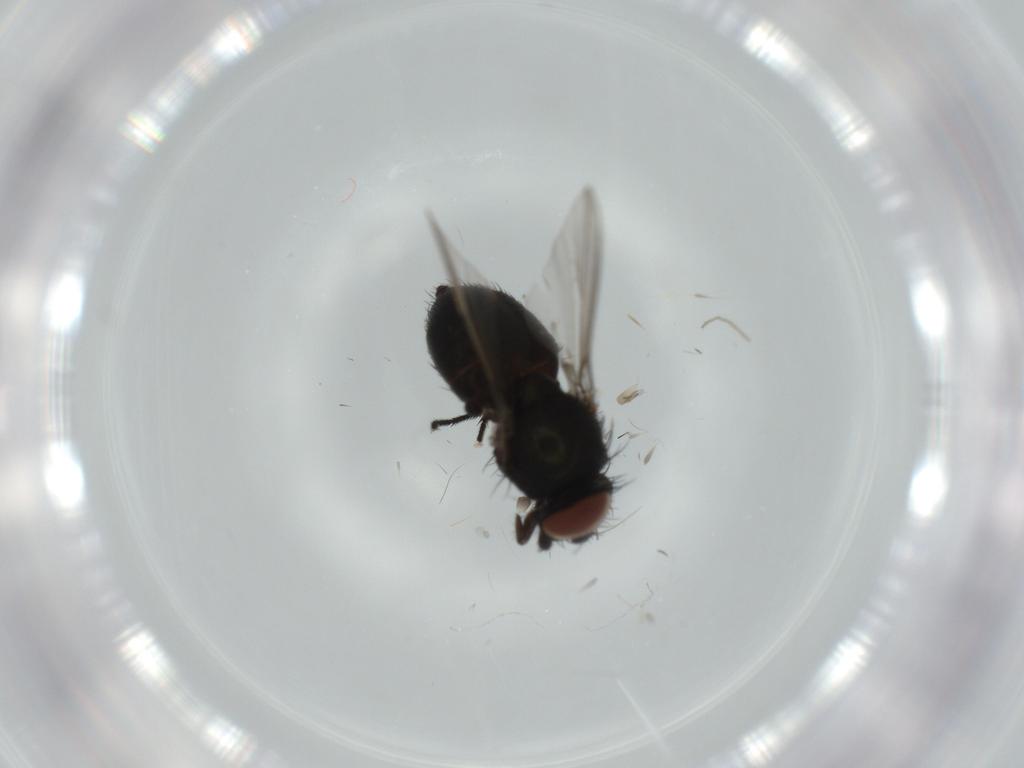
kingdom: Animalia
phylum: Arthropoda
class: Insecta
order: Diptera
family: Milichiidae
